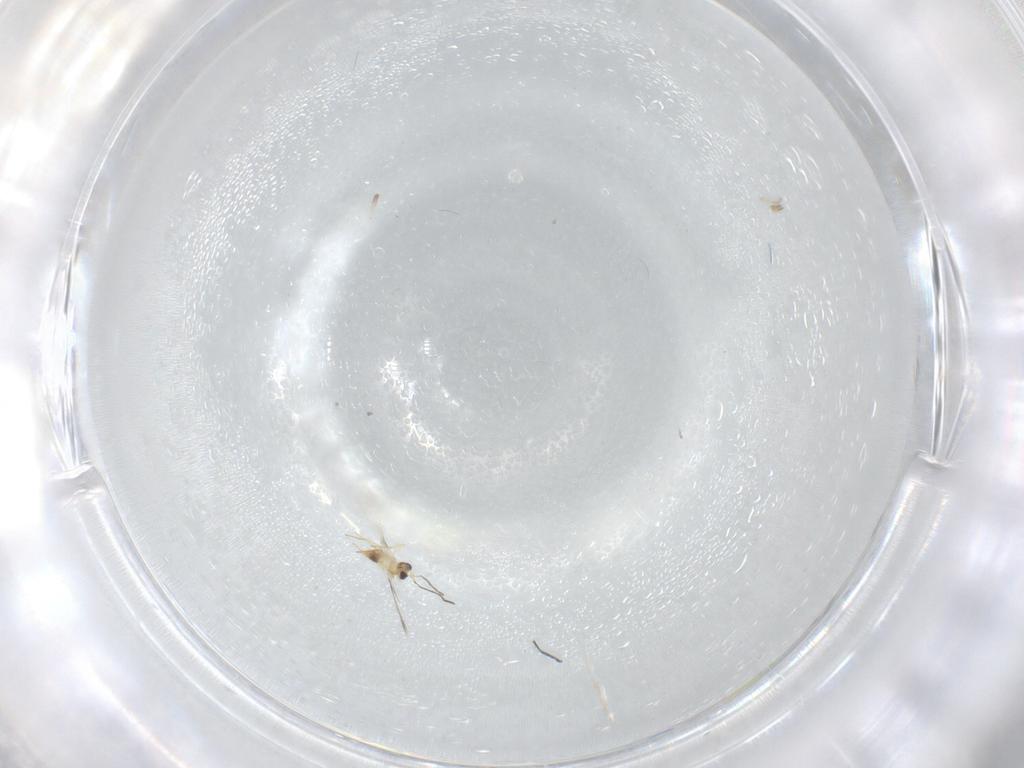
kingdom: Animalia
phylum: Arthropoda
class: Insecta
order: Hymenoptera
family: Mymaridae
